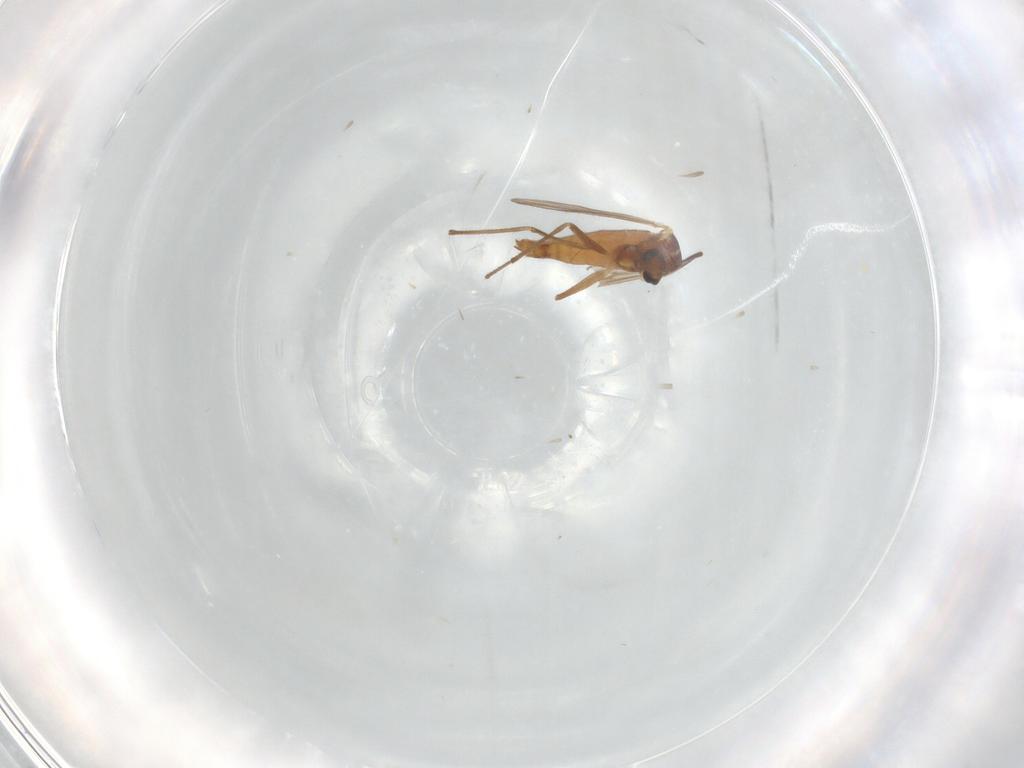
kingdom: Animalia
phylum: Arthropoda
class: Insecta
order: Diptera
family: Chironomidae
